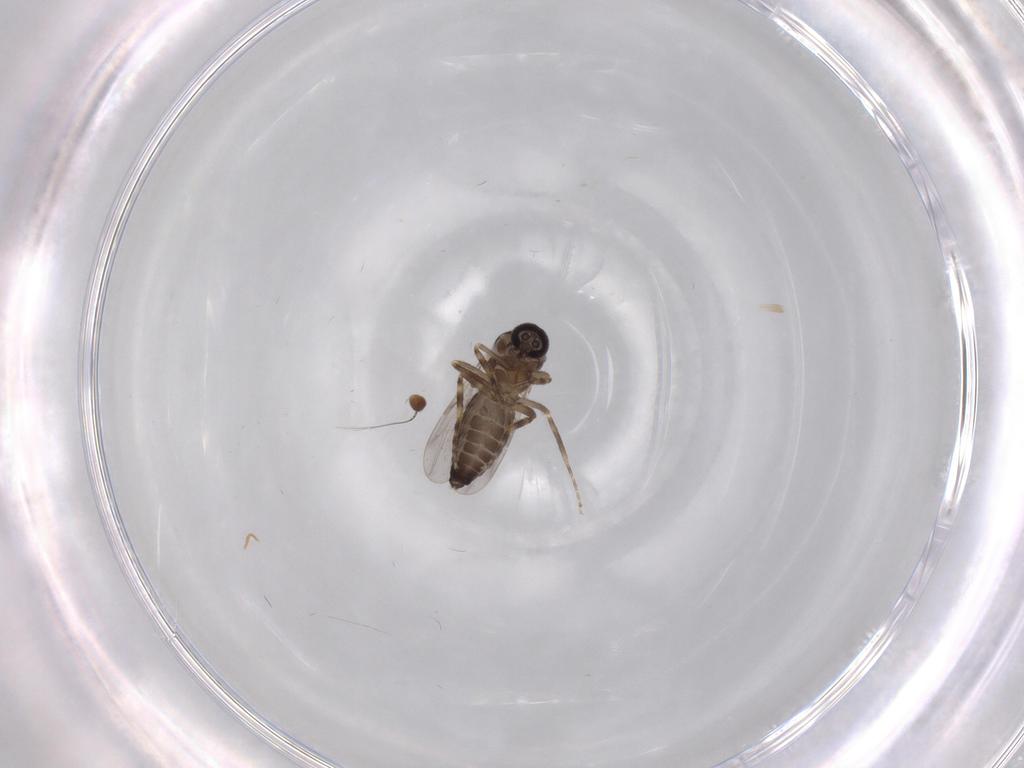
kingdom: Animalia
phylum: Arthropoda
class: Insecta
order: Diptera
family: Ceratopogonidae
